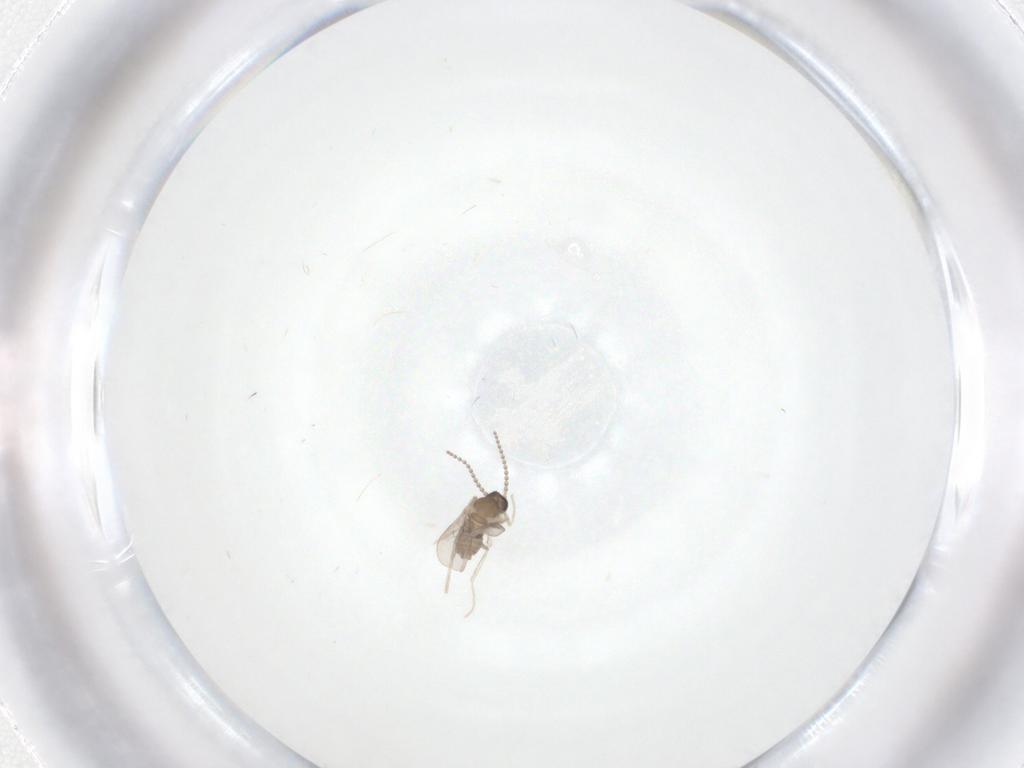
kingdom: Animalia
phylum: Arthropoda
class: Insecta
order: Diptera
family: Cecidomyiidae
